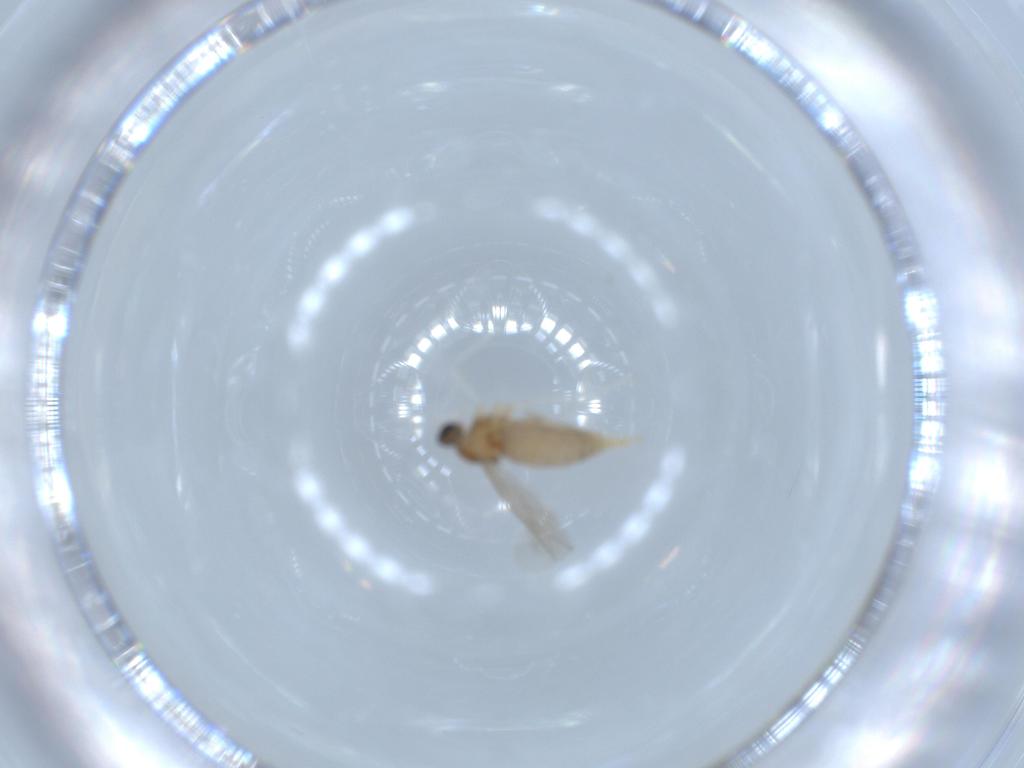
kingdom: Animalia
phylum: Arthropoda
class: Insecta
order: Diptera
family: Cecidomyiidae
